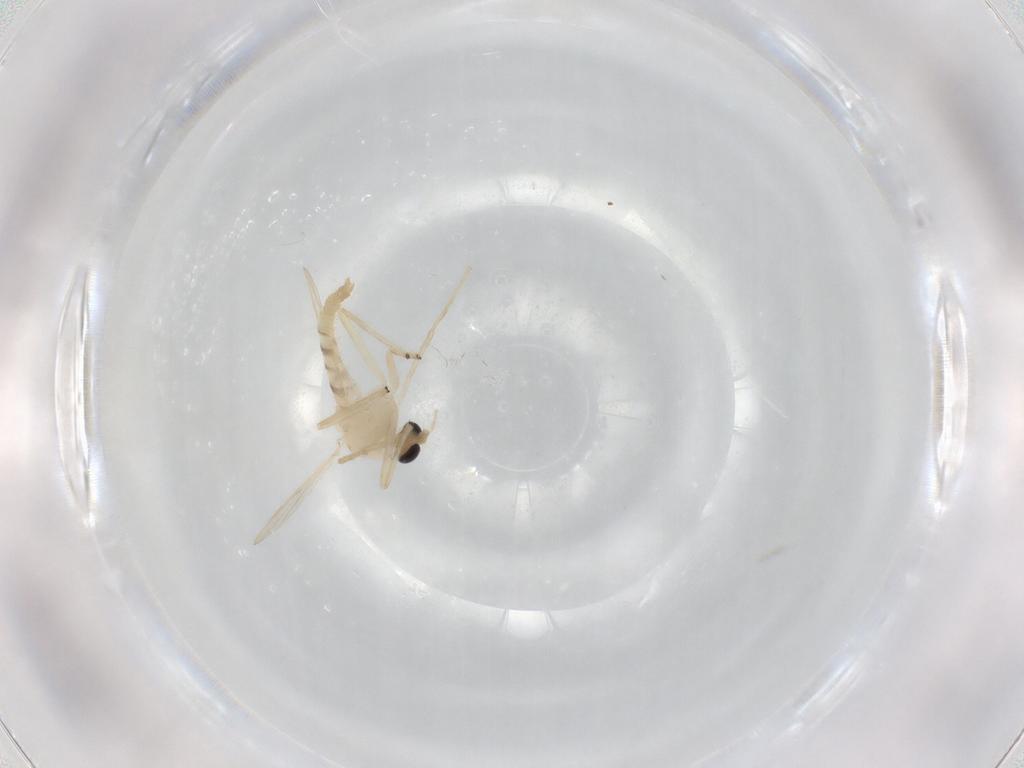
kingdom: Animalia
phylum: Arthropoda
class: Insecta
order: Diptera
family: Chironomidae
